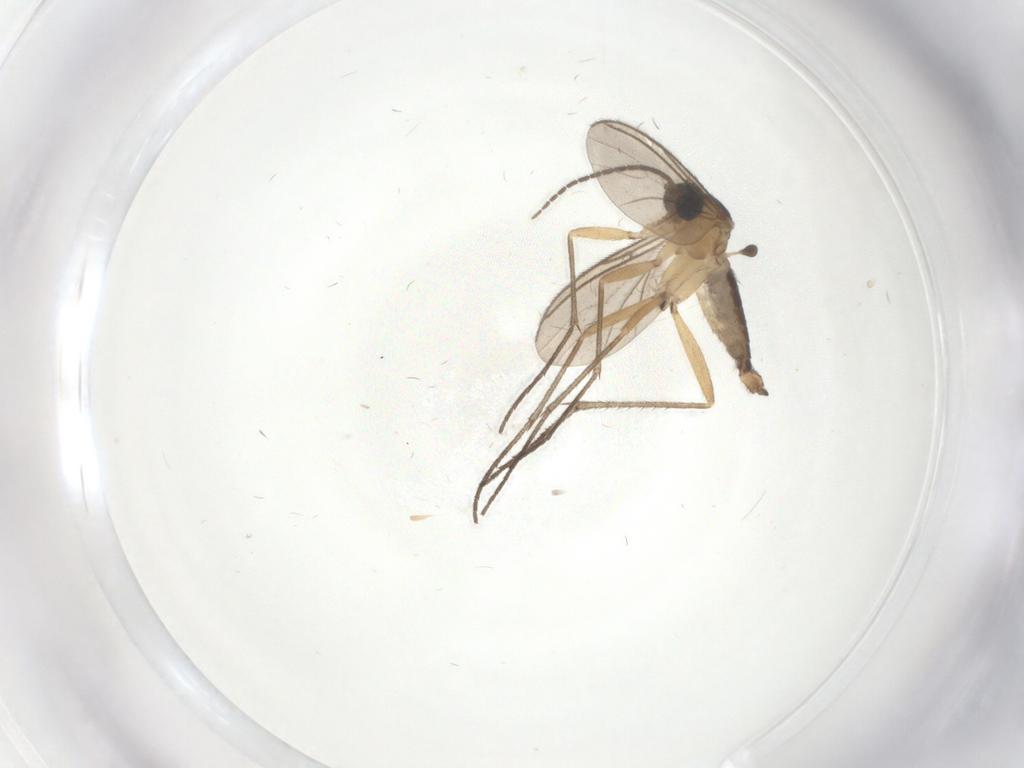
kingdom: Animalia
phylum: Arthropoda
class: Insecta
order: Diptera
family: Sciaridae
